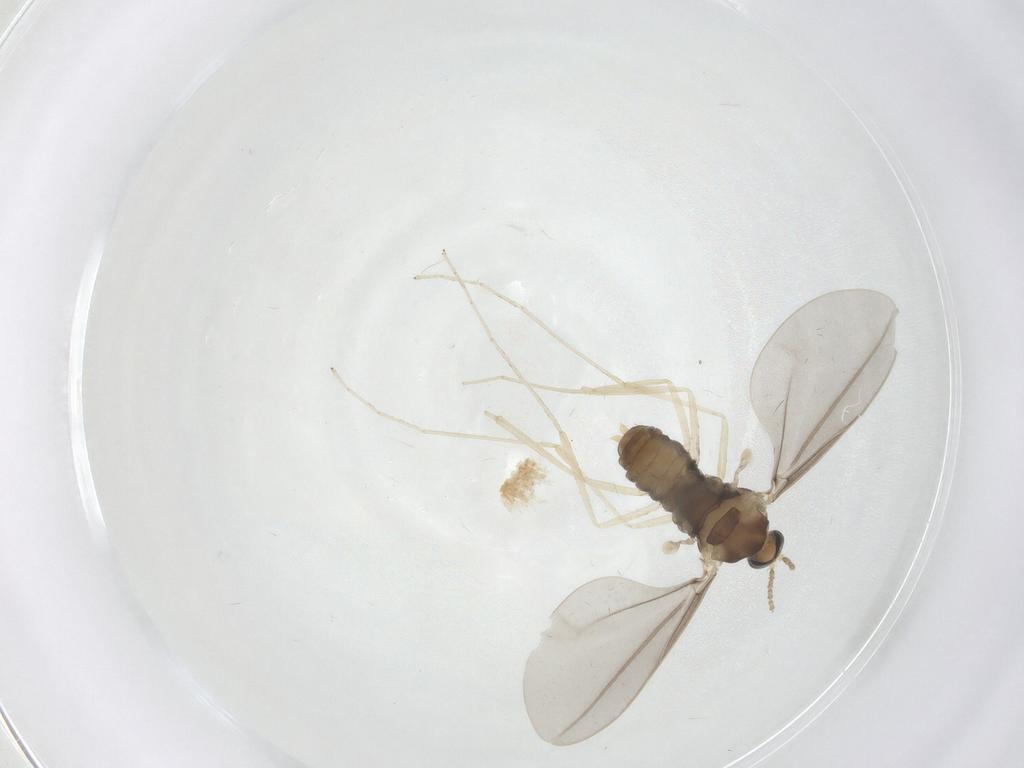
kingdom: Animalia
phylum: Arthropoda
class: Insecta
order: Diptera
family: Cecidomyiidae
